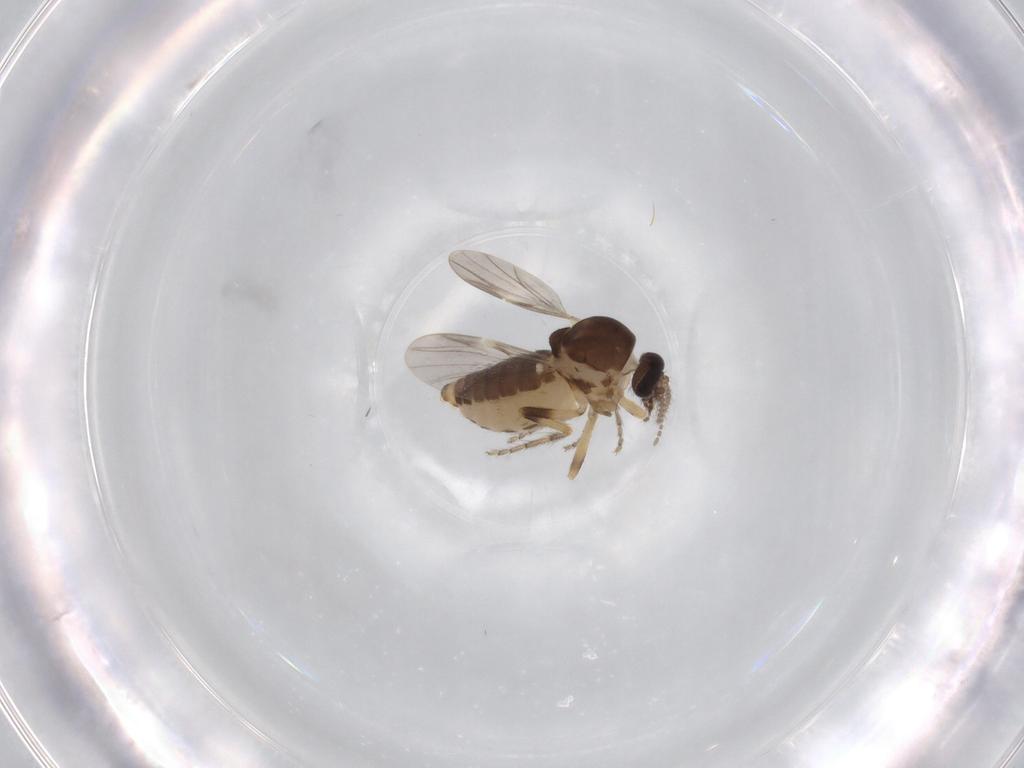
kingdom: Animalia
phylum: Arthropoda
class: Insecta
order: Diptera
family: Ceratopogonidae
